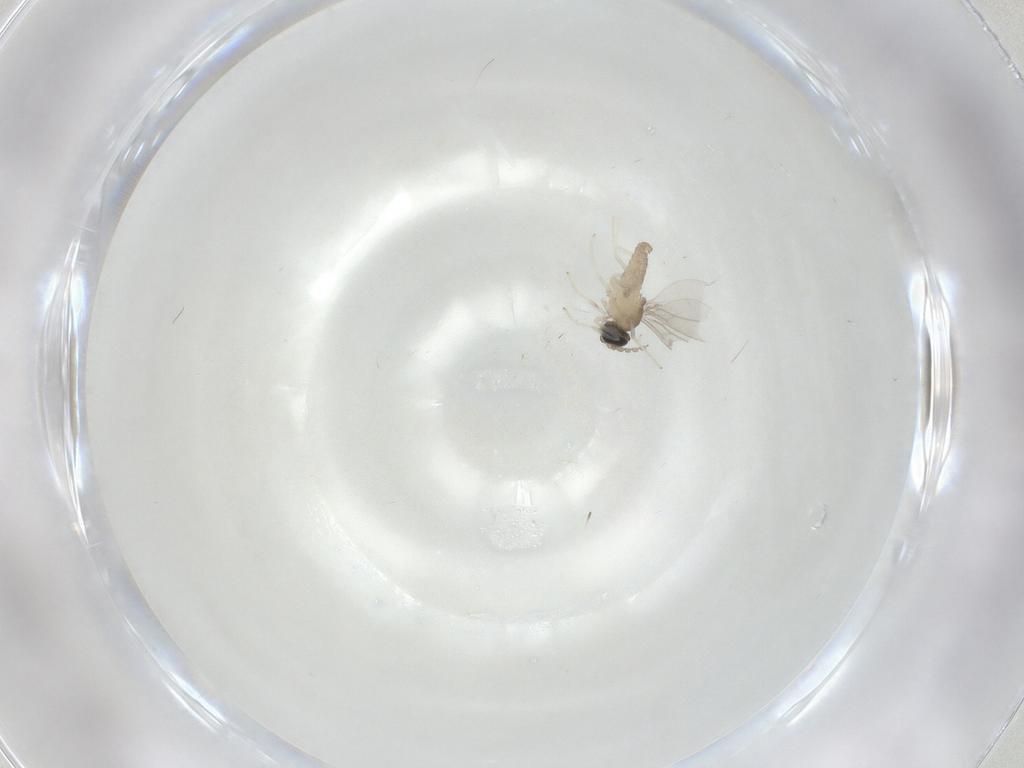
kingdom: Animalia
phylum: Arthropoda
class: Insecta
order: Diptera
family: Cecidomyiidae
